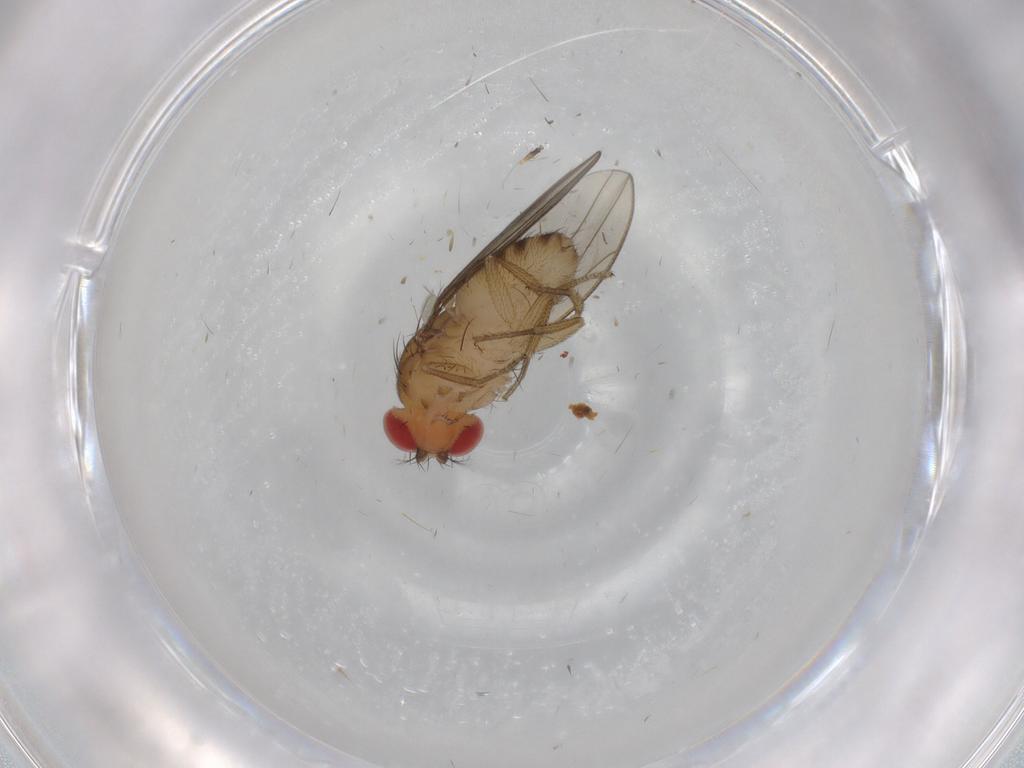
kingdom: Animalia
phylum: Arthropoda
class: Insecta
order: Diptera
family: Drosophilidae
